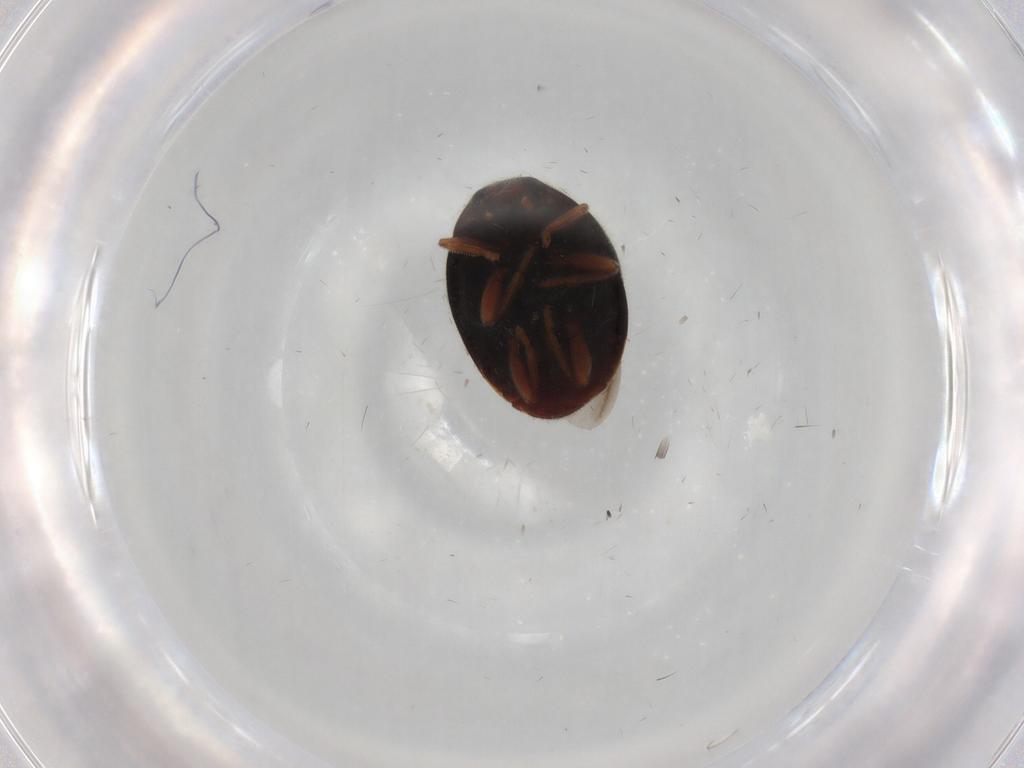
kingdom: Animalia
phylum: Arthropoda
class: Insecta
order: Coleoptera
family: Coccinellidae
